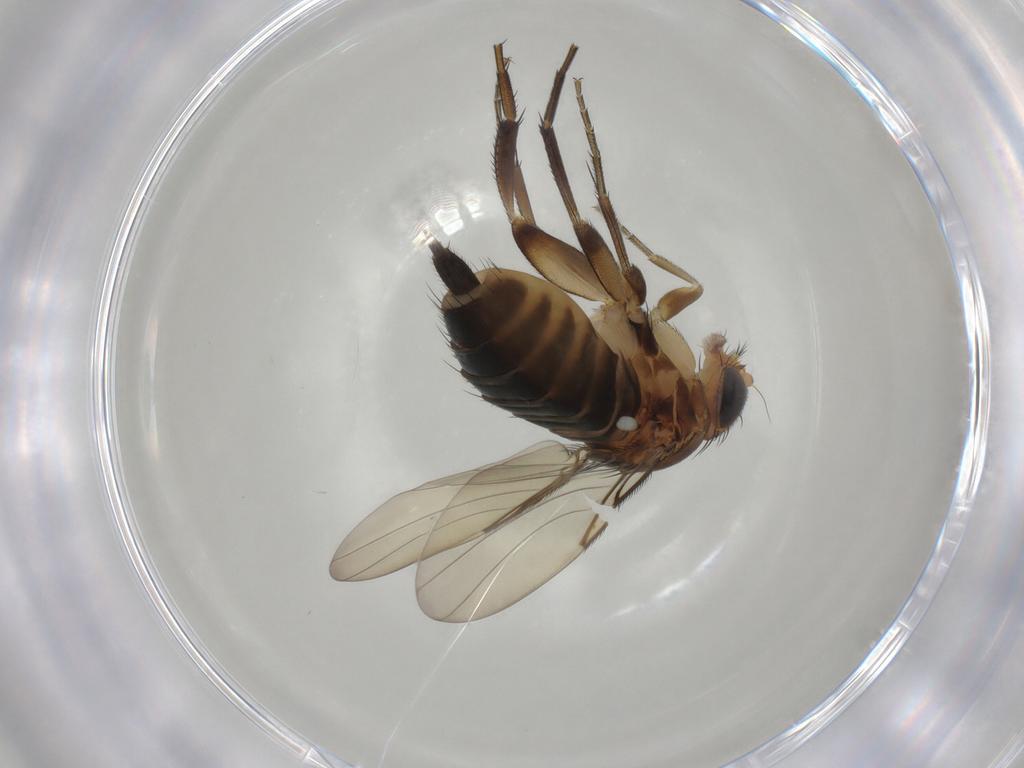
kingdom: Animalia
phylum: Arthropoda
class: Insecta
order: Diptera
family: Phoridae
